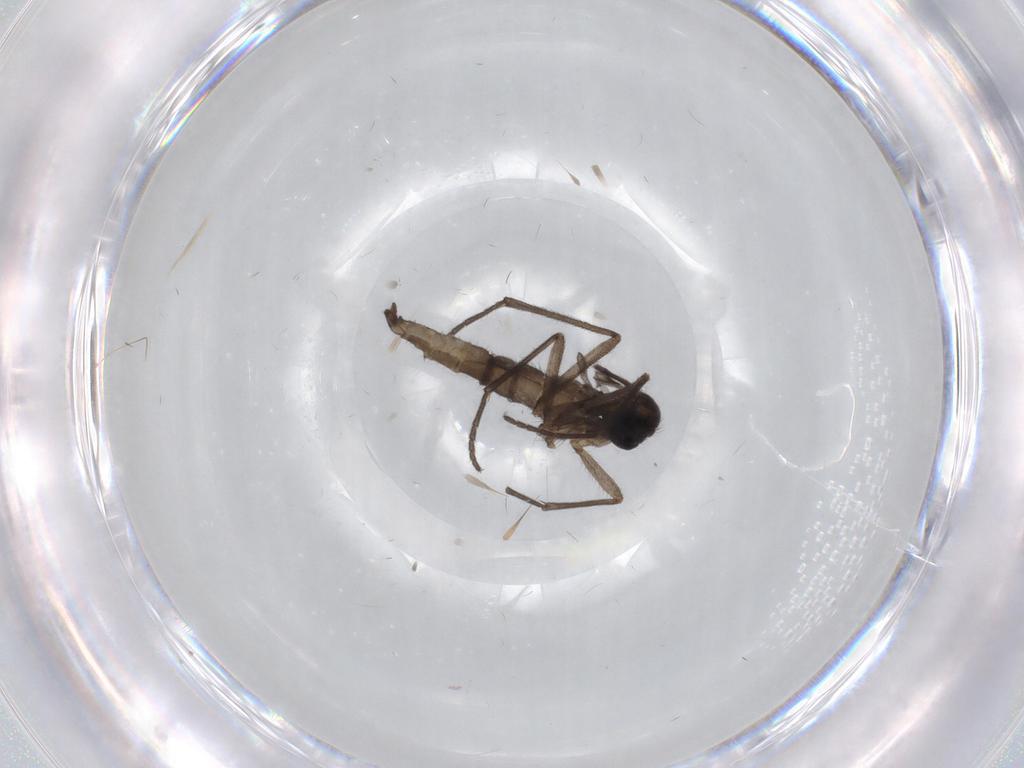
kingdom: Animalia
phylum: Arthropoda
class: Insecta
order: Diptera
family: Sciaridae
